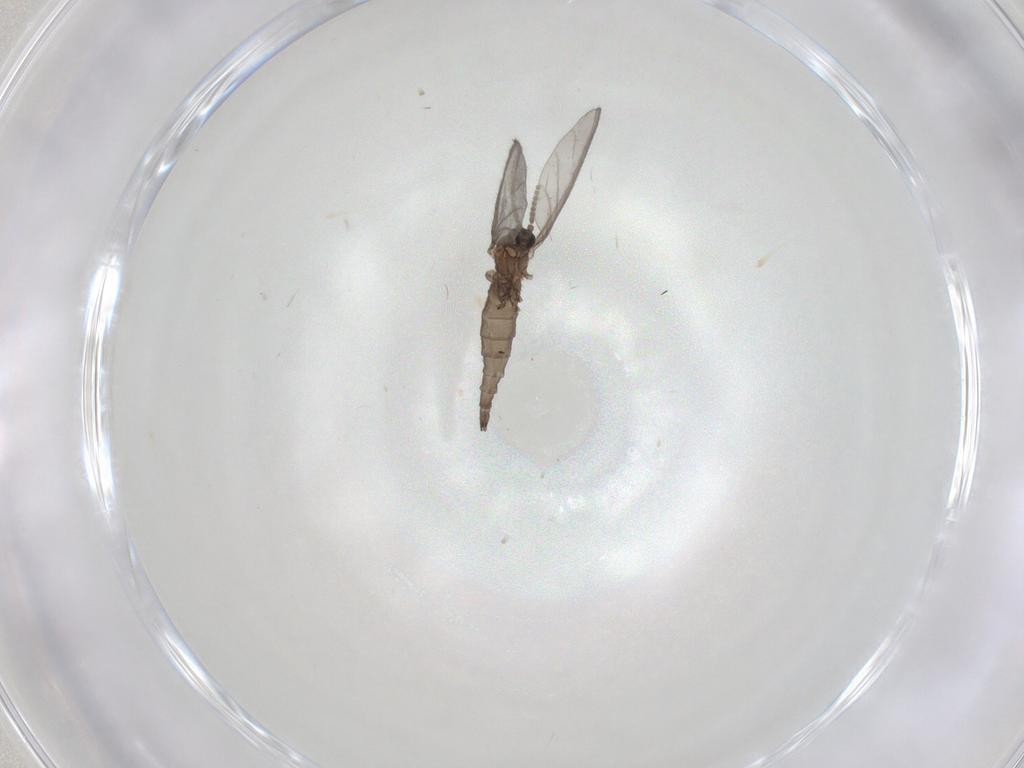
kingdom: Animalia
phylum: Arthropoda
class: Insecta
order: Diptera
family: Sciaridae
